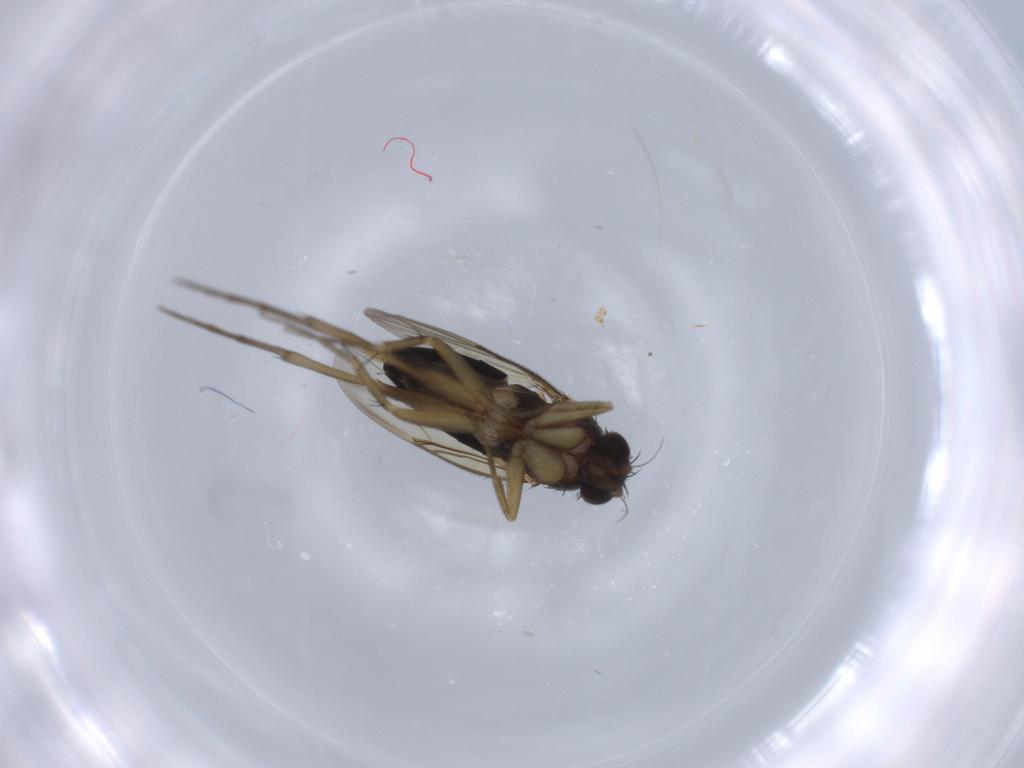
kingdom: Animalia
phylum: Arthropoda
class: Insecta
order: Diptera
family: Phoridae
